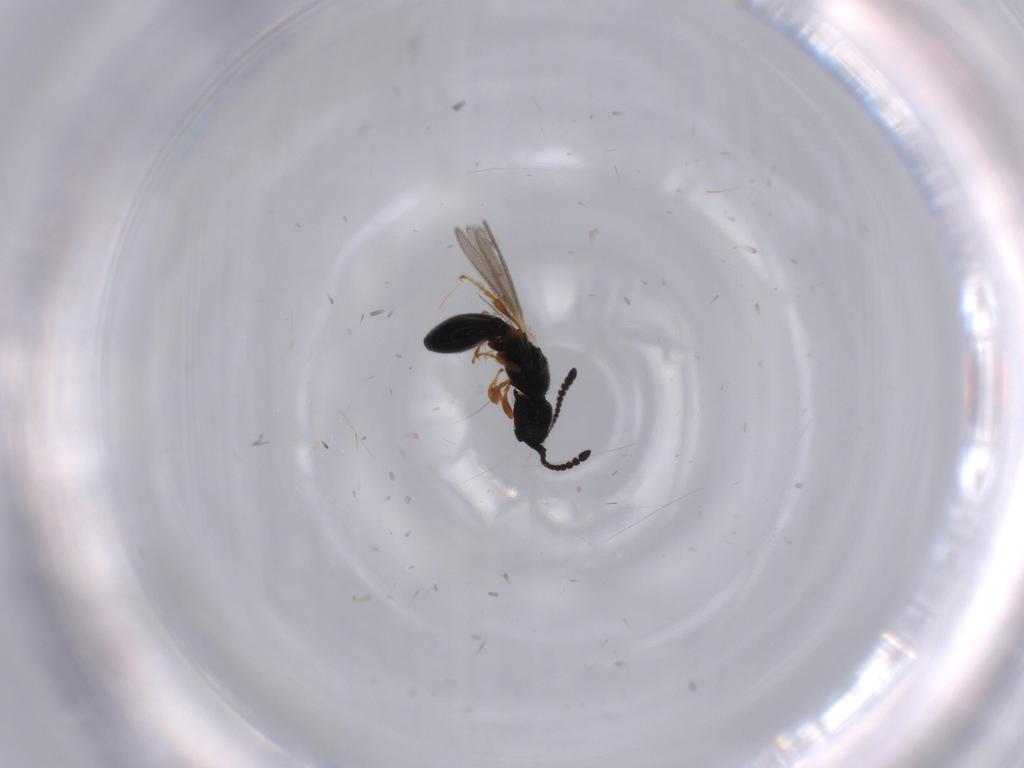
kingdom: Animalia
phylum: Arthropoda
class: Insecta
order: Hymenoptera
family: Diapriidae
